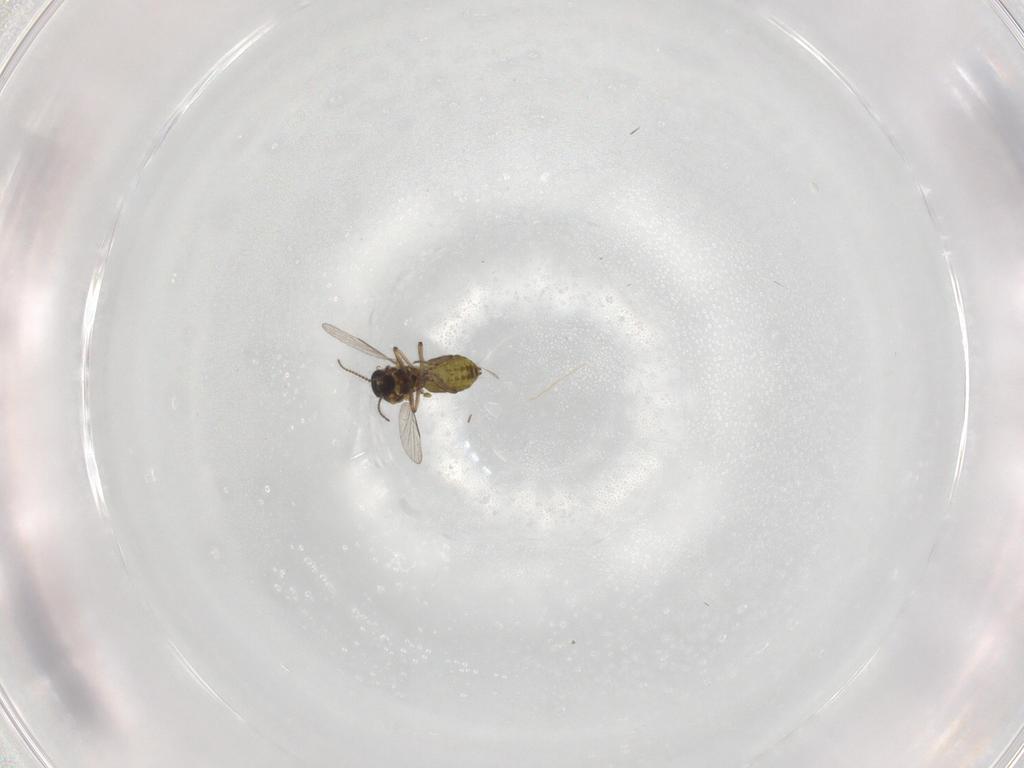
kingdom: Animalia
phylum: Arthropoda
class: Insecta
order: Diptera
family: Ceratopogonidae
